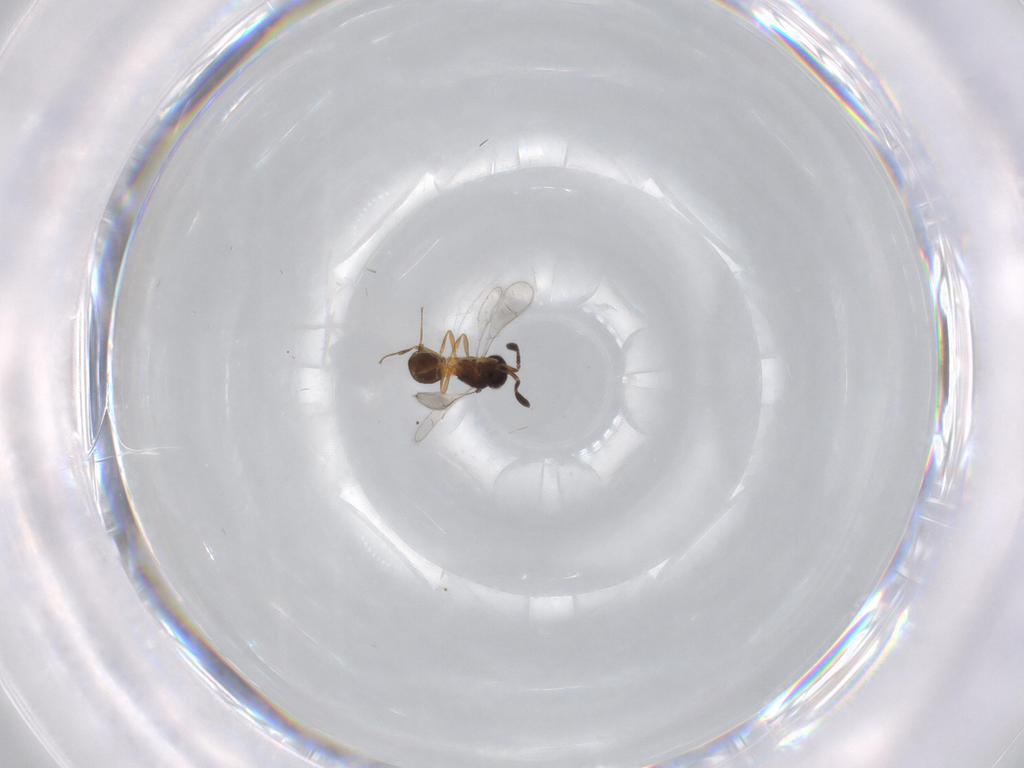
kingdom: Animalia
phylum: Arthropoda
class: Insecta
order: Hymenoptera
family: Scelionidae
